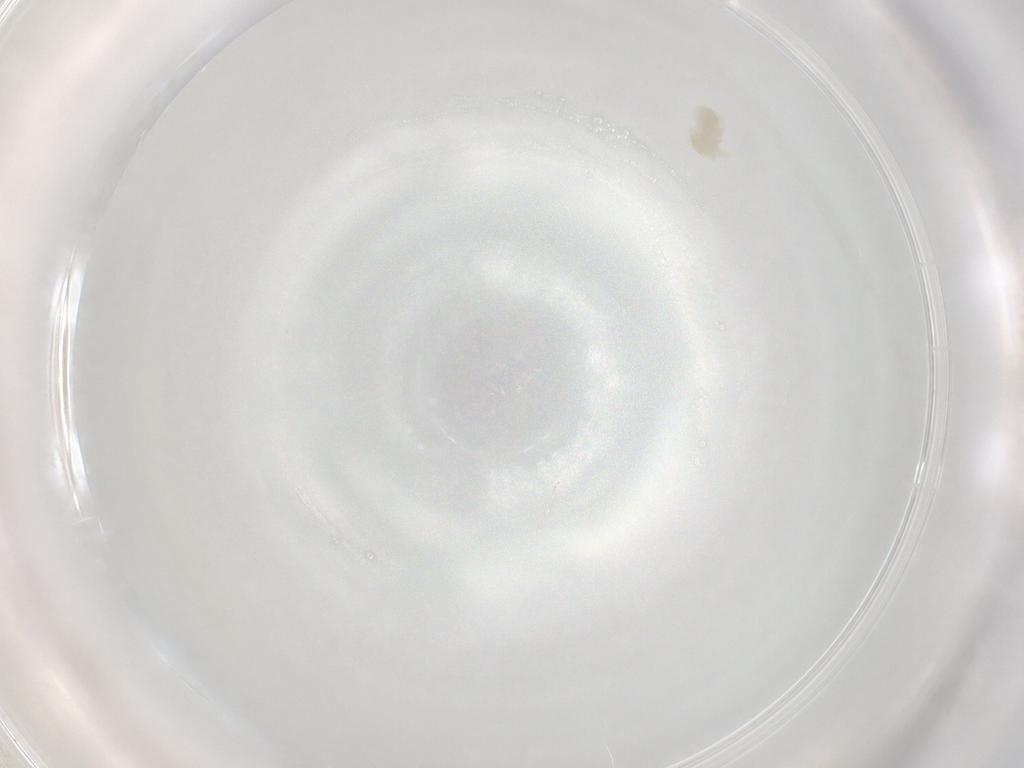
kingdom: Animalia
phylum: Arthropoda
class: Arachnida
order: Trombidiformes
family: Eupodidae
